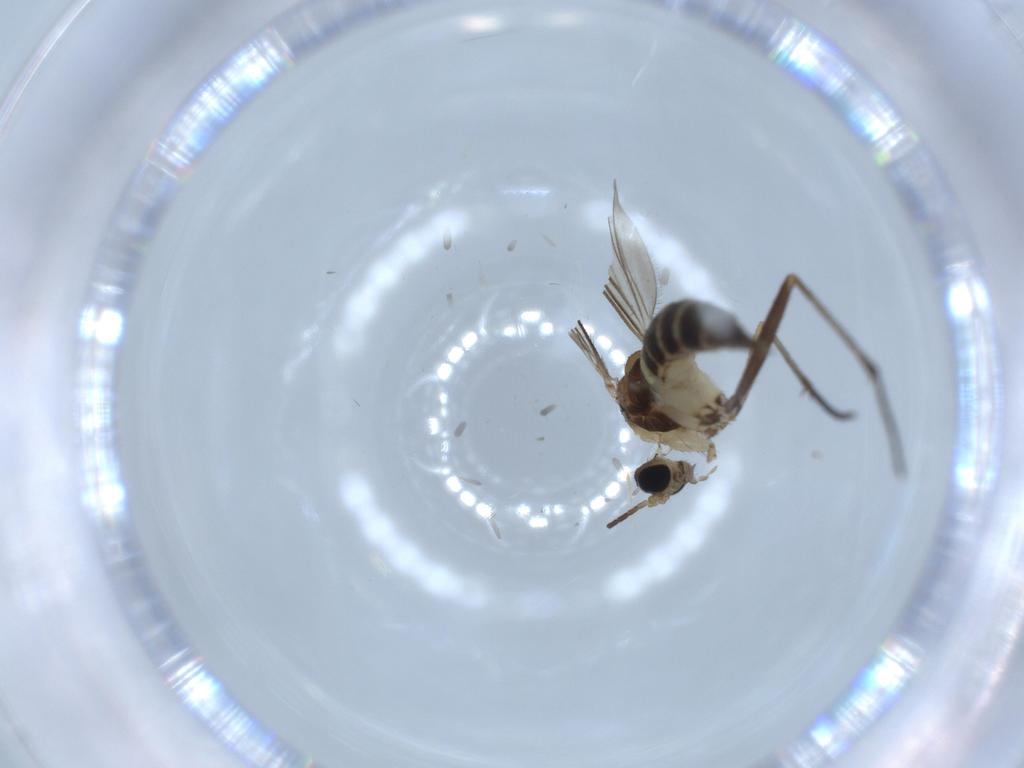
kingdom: Animalia
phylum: Arthropoda
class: Insecta
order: Diptera
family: Sciaridae
